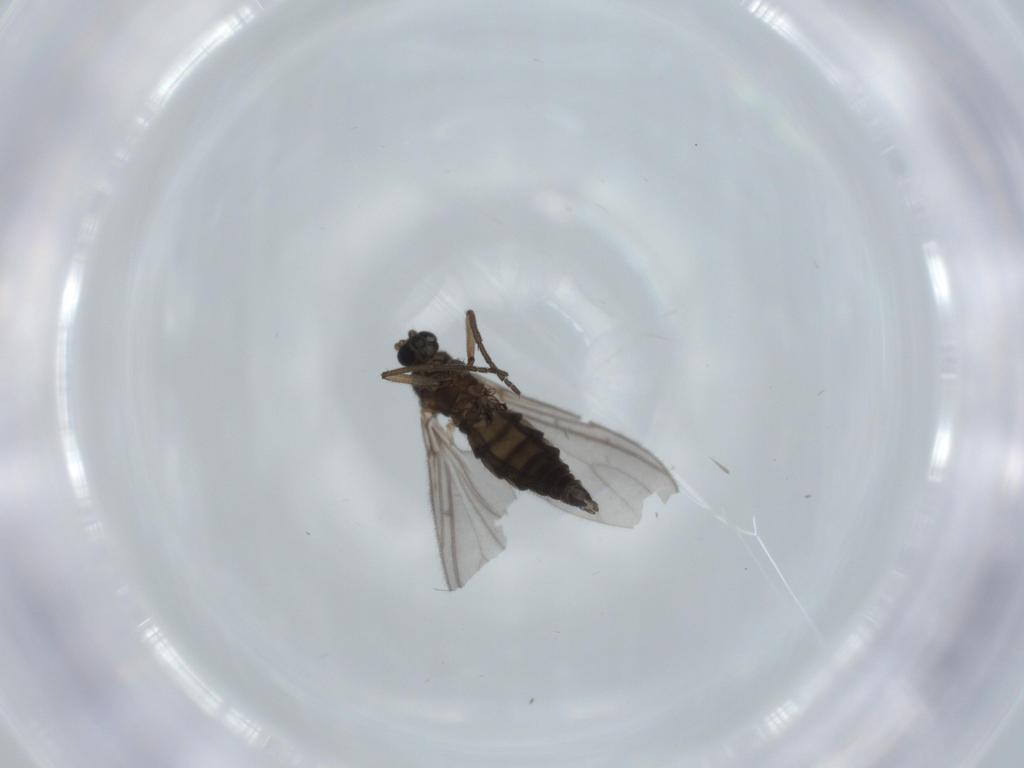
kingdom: Animalia
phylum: Arthropoda
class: Insecta
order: Diptera
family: Sciaridae
